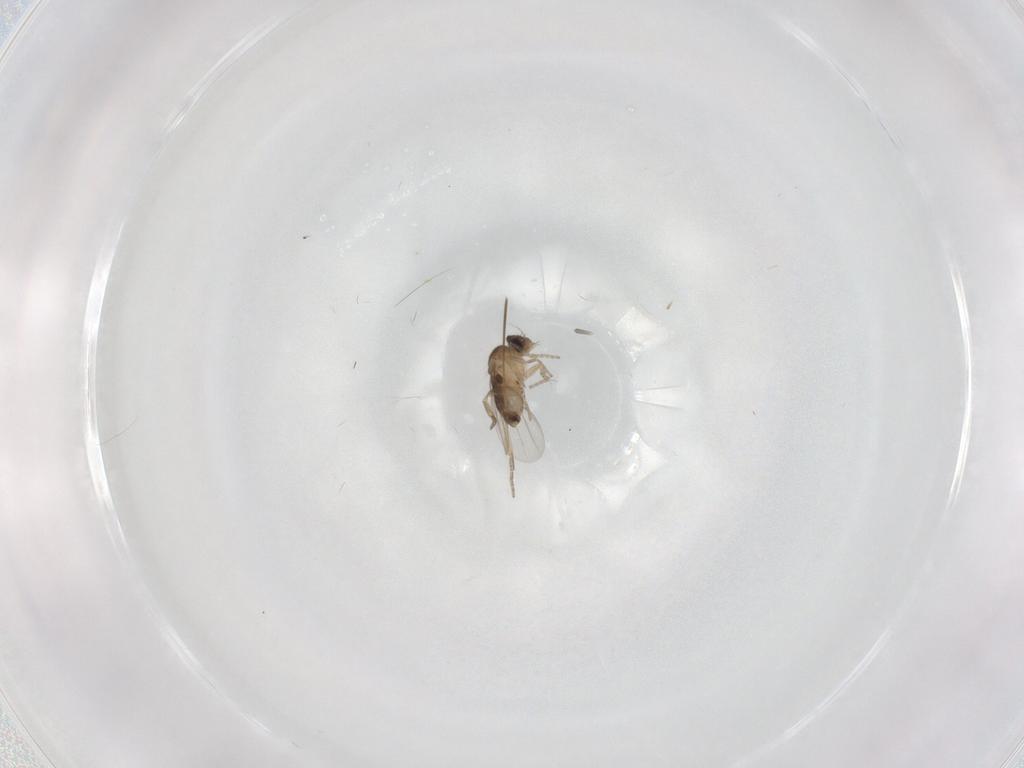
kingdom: Animalia
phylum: Arthropoda
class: Insecta
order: Diptera
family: Phoridae
